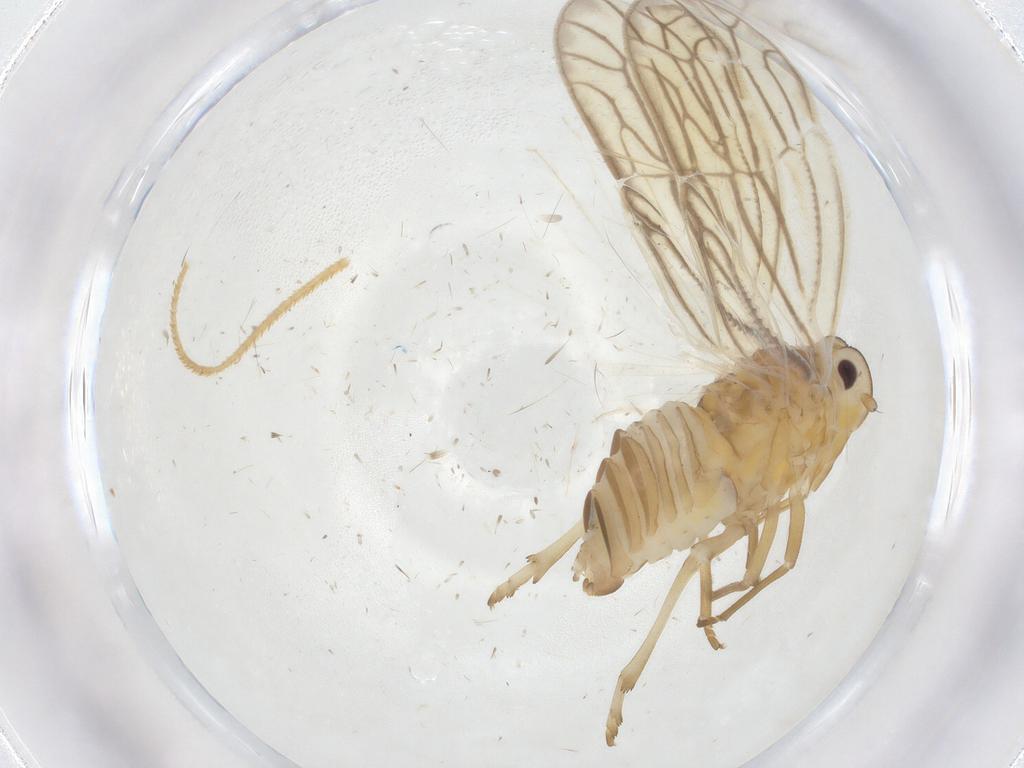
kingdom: Animalia
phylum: Arthropoda
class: Insecta
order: Hemiptera
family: Meenoplidae
